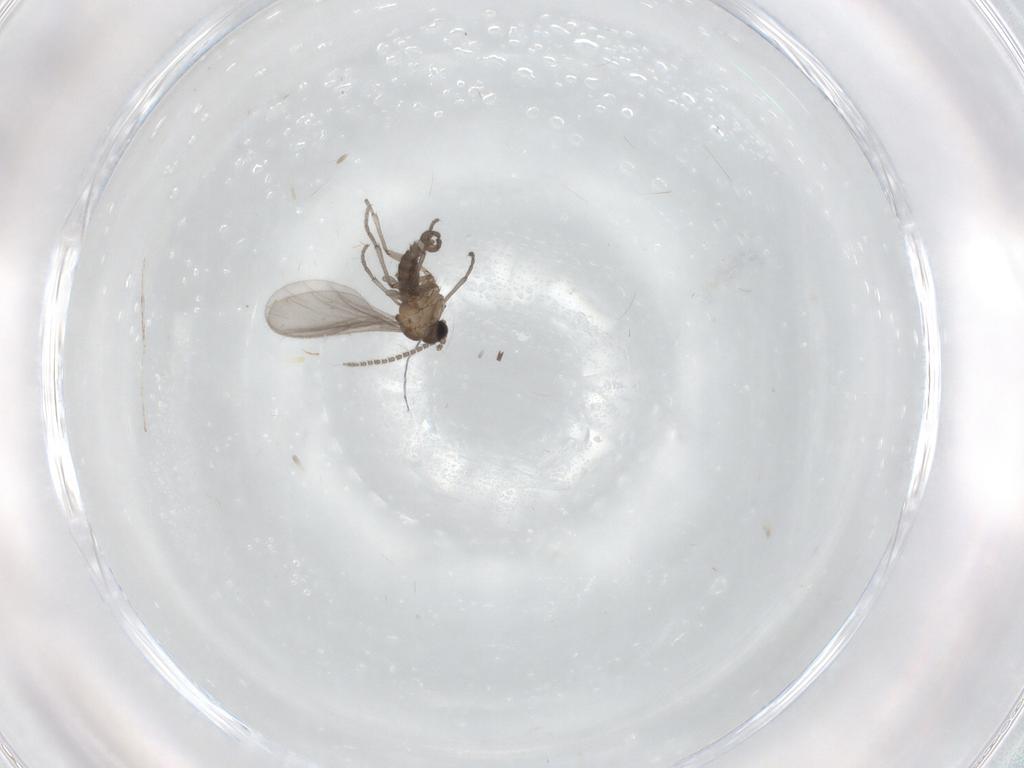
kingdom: Animalia
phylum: Arthropoda
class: Insecta
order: Diptera
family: Sciaridae
